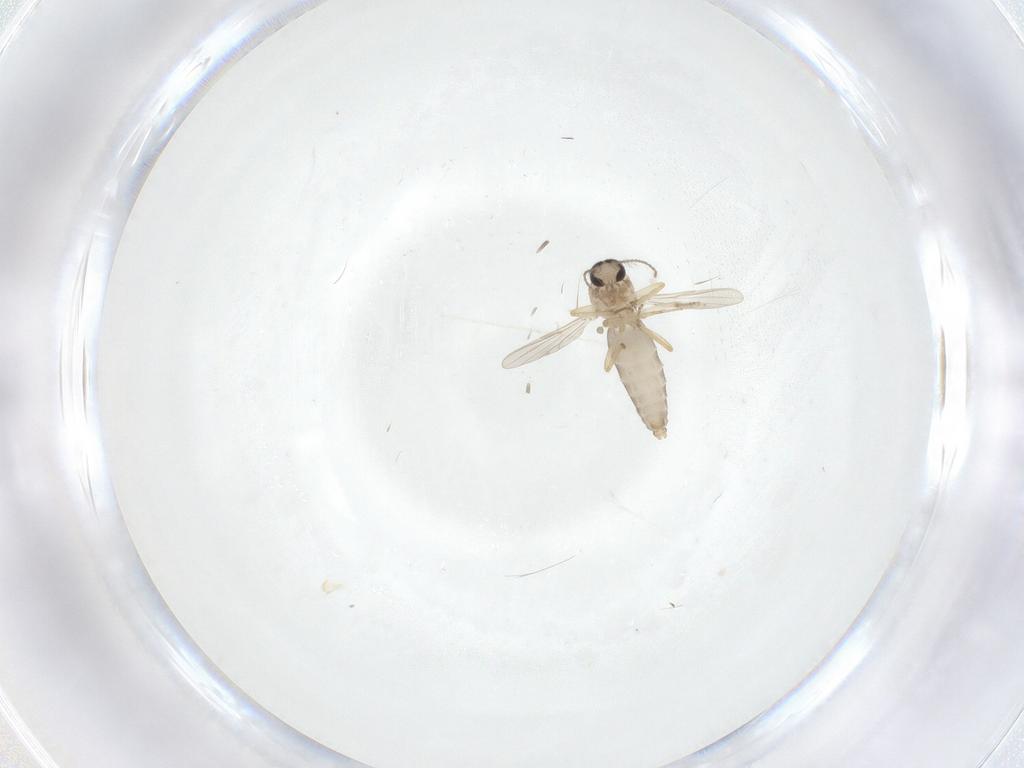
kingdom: Animalia
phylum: Arthropoda
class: Insecta
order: Diptera
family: Ceratopogonidae
